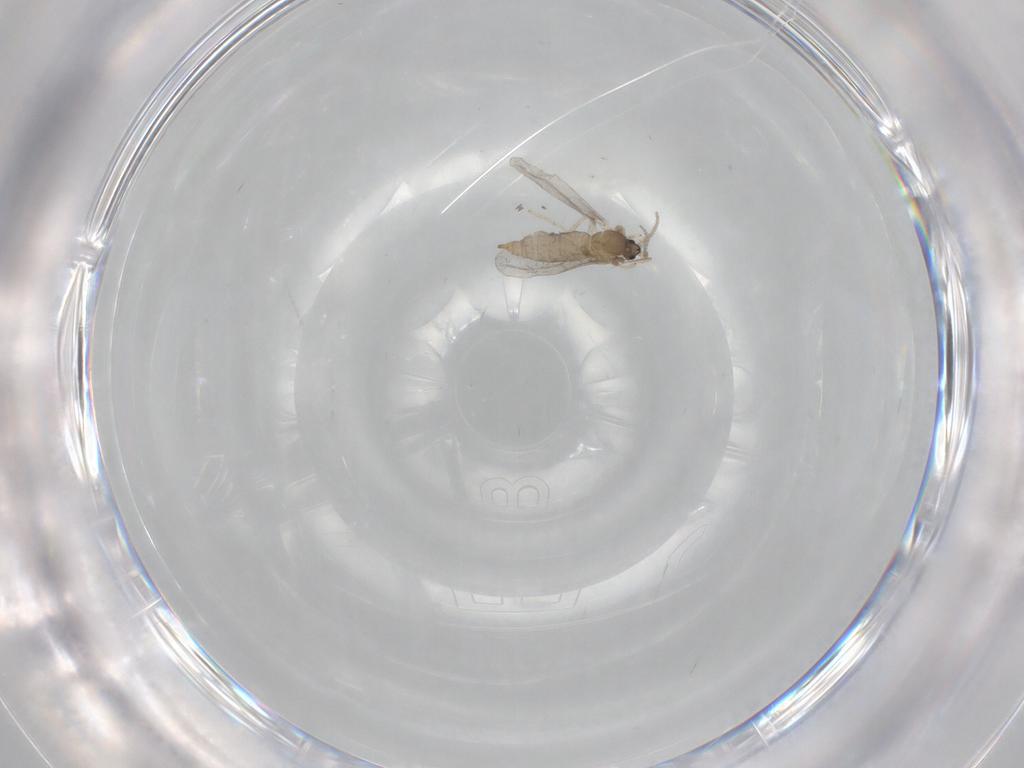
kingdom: Animalia
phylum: Arthropoda
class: Insecta
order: Diptera
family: Cecidomyiidae
